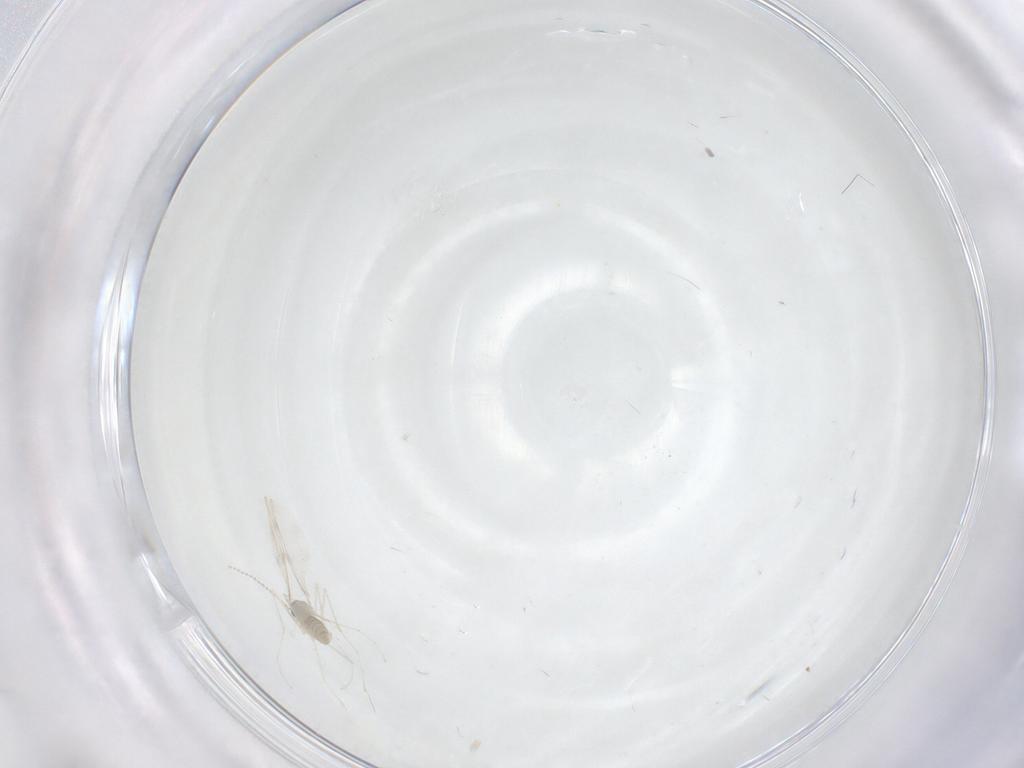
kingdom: Animalia
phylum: Arthropoda
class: Insecta
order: Diptera
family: Cecidomyiidae
